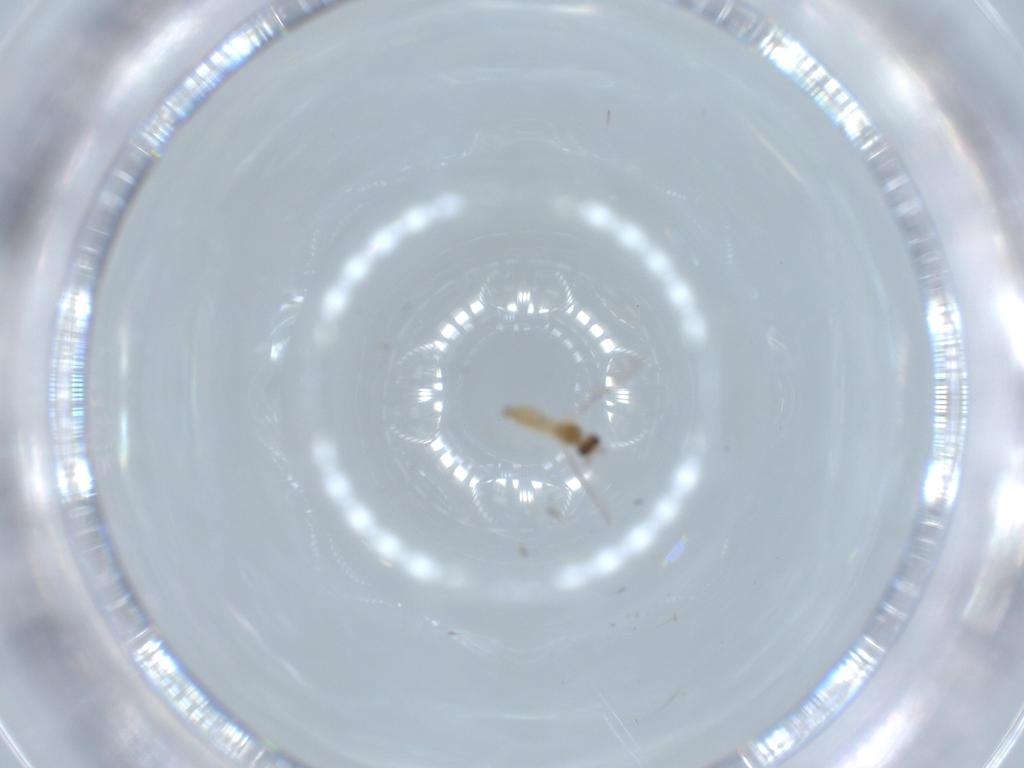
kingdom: Animalia
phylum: Arthropoda
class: Insecta
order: Diptera
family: Cecidomyiidae
